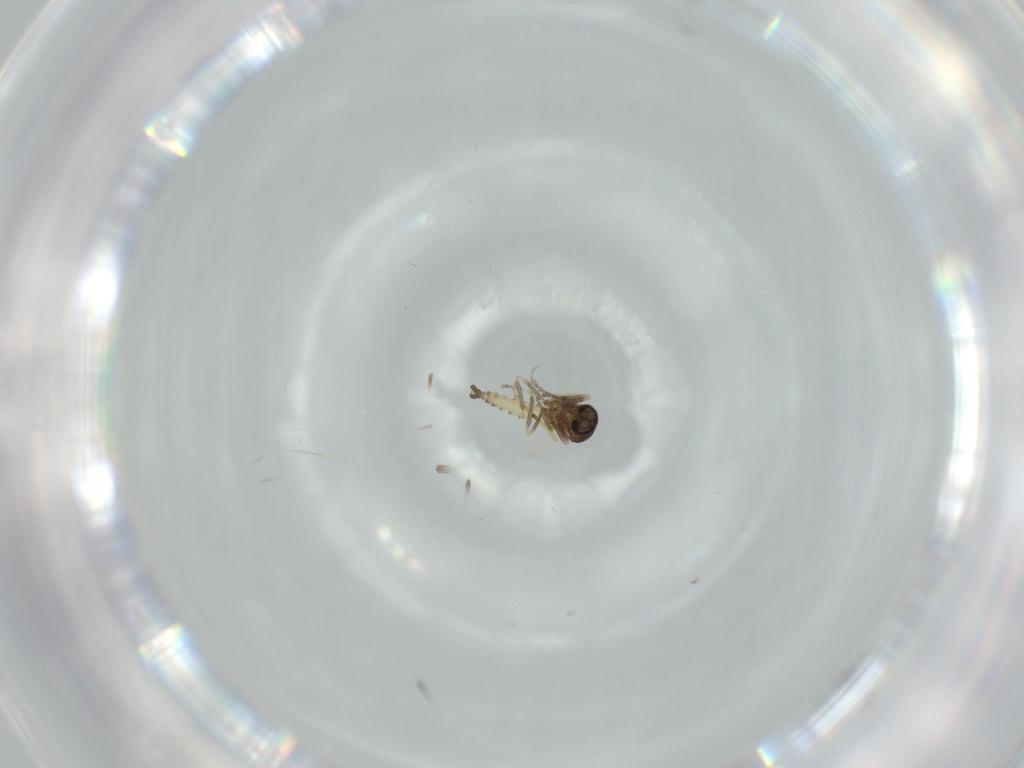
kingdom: Animalia
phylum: Arthropoda
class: Insecta
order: Diptera
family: Ceratopogonidae
